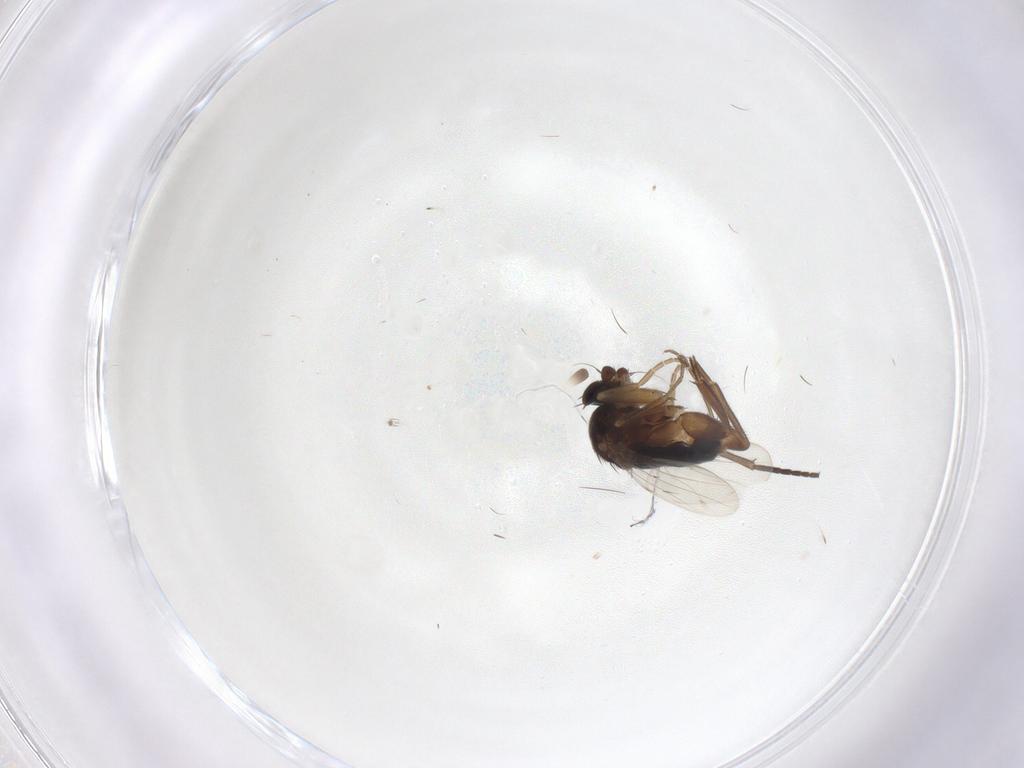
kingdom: Animalia
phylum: Arthropoda
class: Insecta
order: Diptera
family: Phoridae
